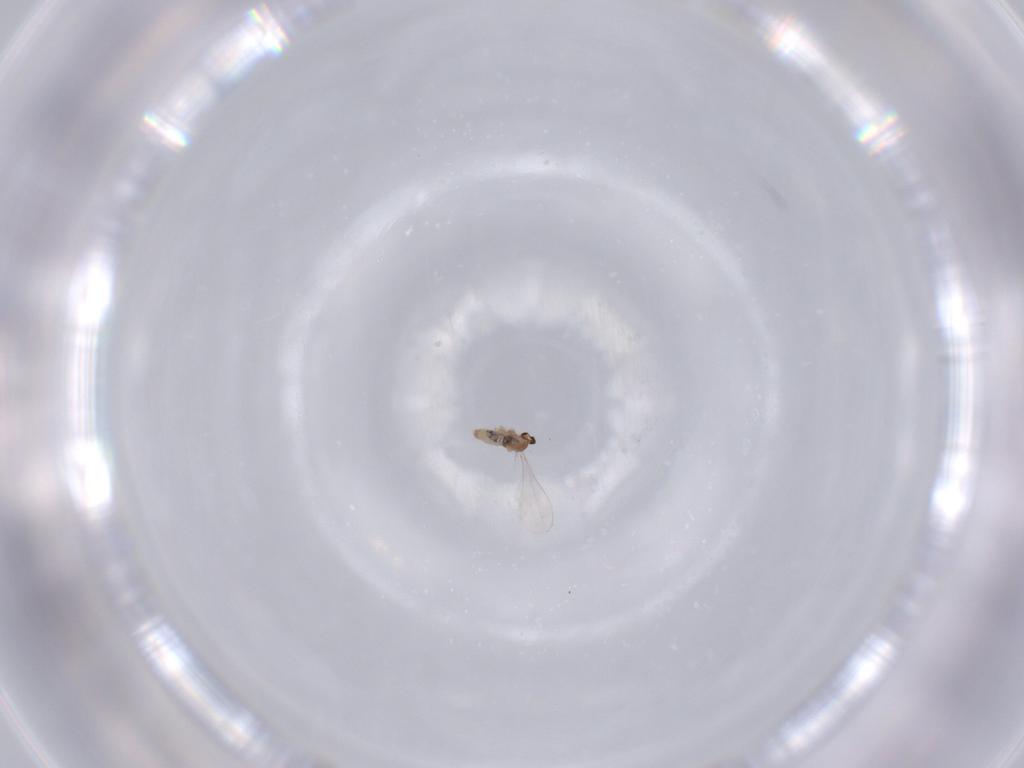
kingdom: Animalia
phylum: Arthropoda
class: Insecta
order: Diptera
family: Cecidomyiidae
